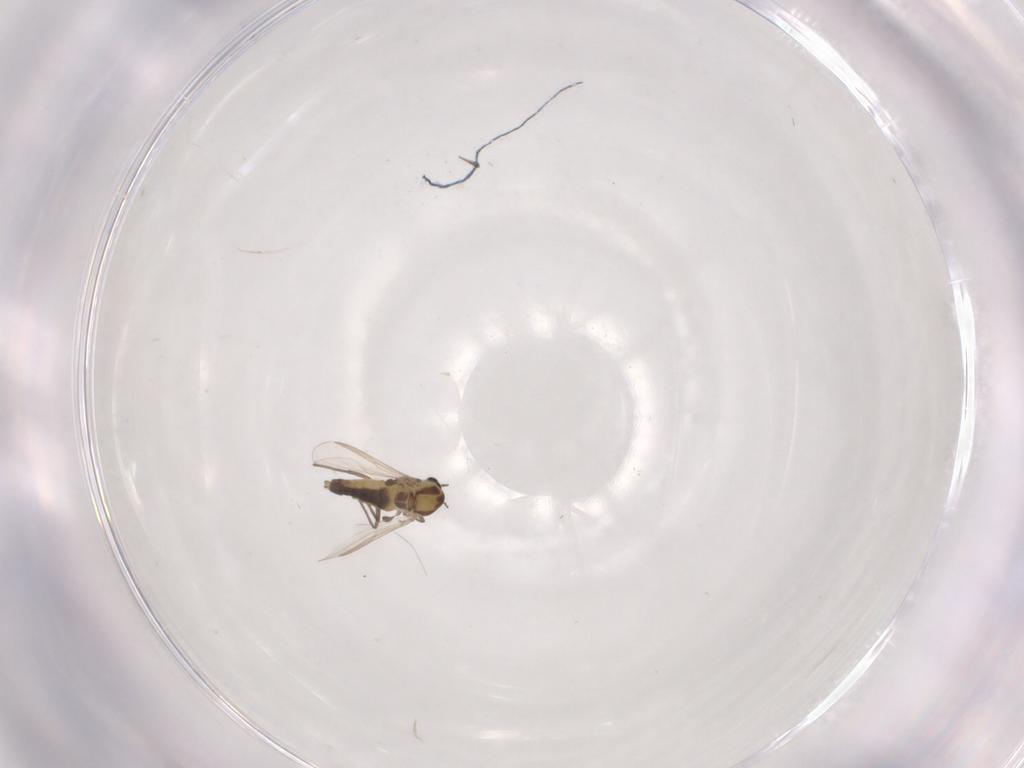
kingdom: Animalia
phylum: Arthropoda
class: Insecta
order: Diptera
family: Chironomidae
